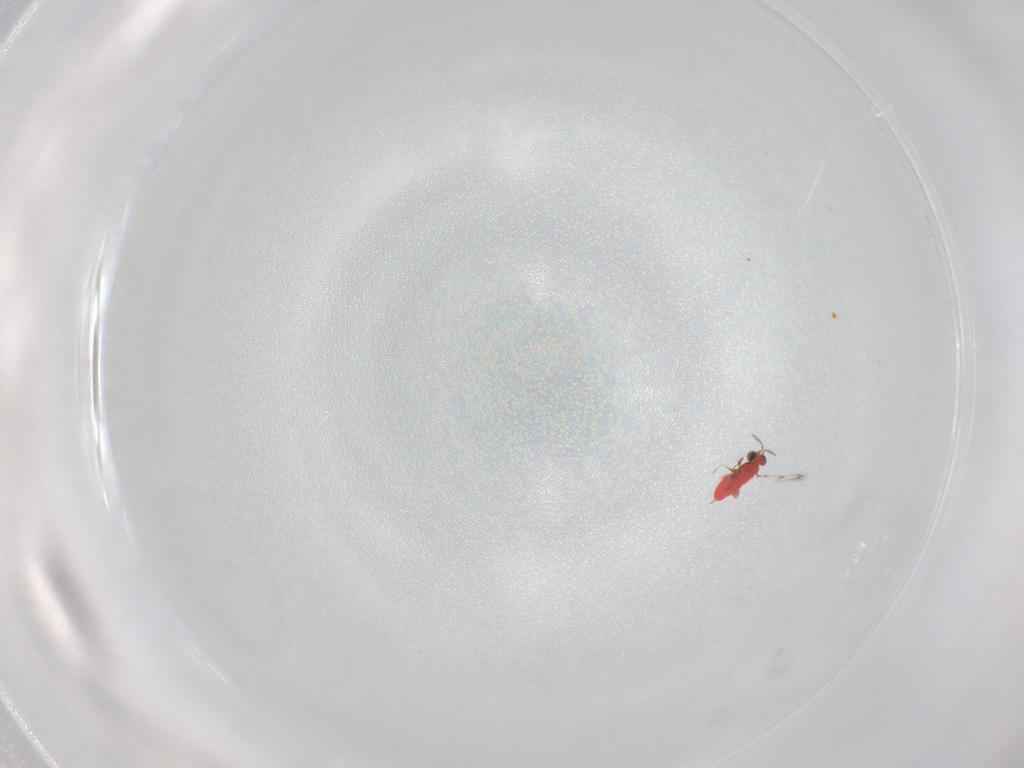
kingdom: Animalia
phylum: Arthropoda
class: Insecta
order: Hymenoptera
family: Trichogrammatidae
